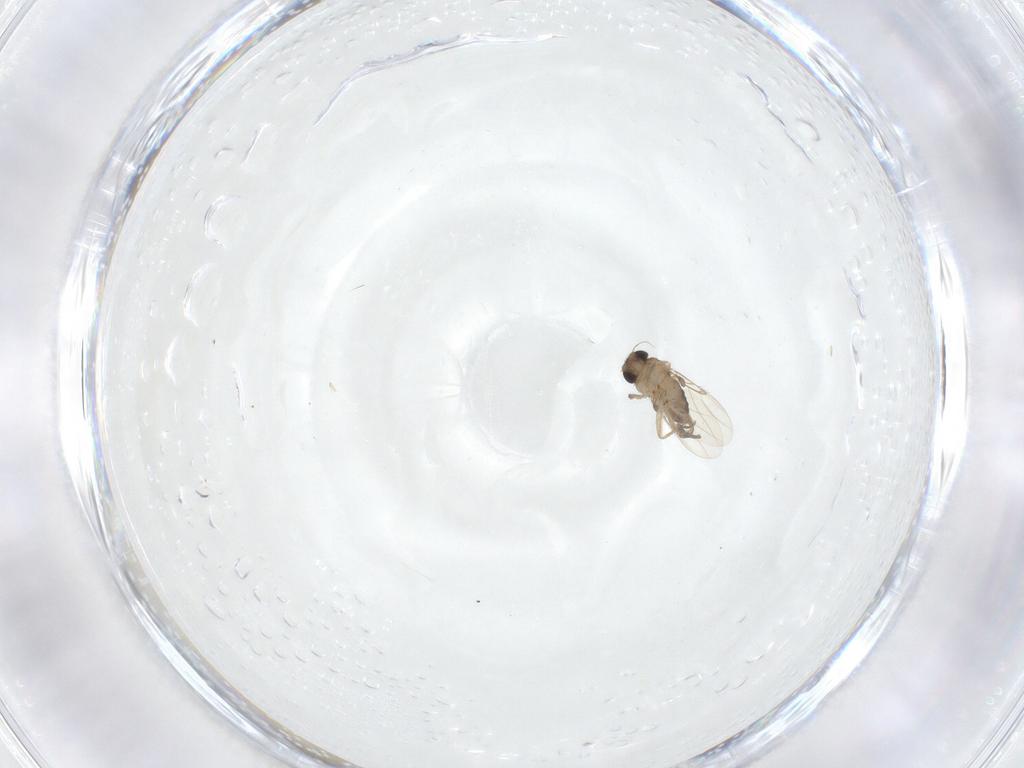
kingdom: Animalia
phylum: Arthropoda
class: Insecta
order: Diptera
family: Phoridae
